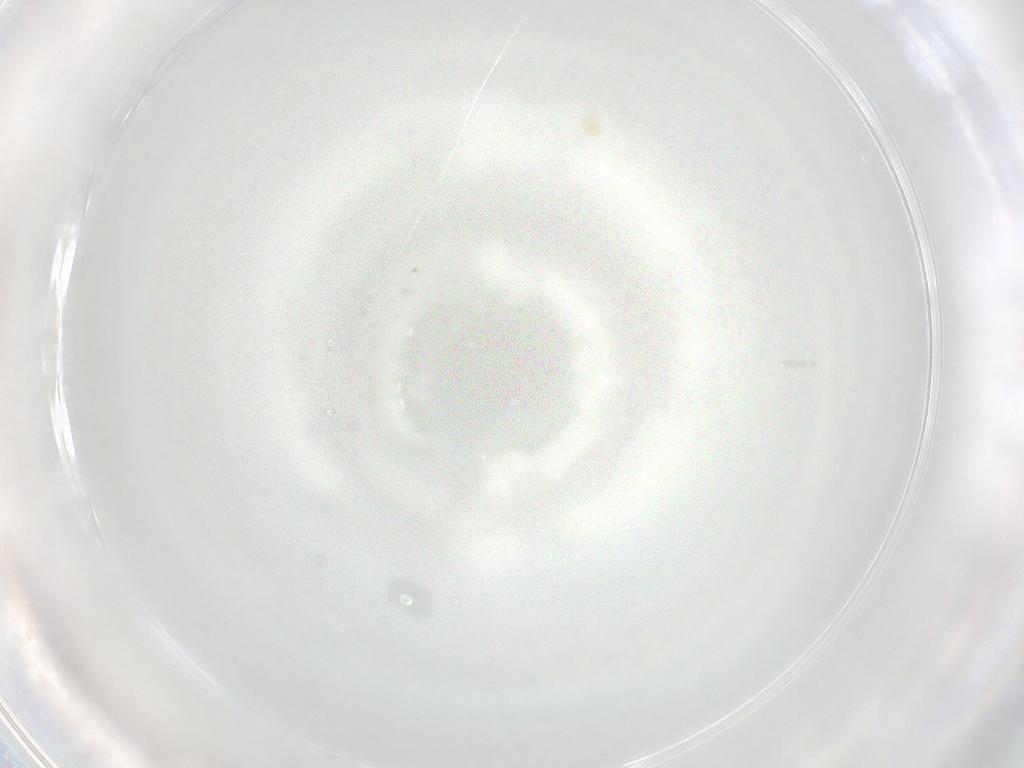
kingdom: Animalia
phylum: Arthropoda
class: Arachnida
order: Trombidiformes
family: Eupodidae
